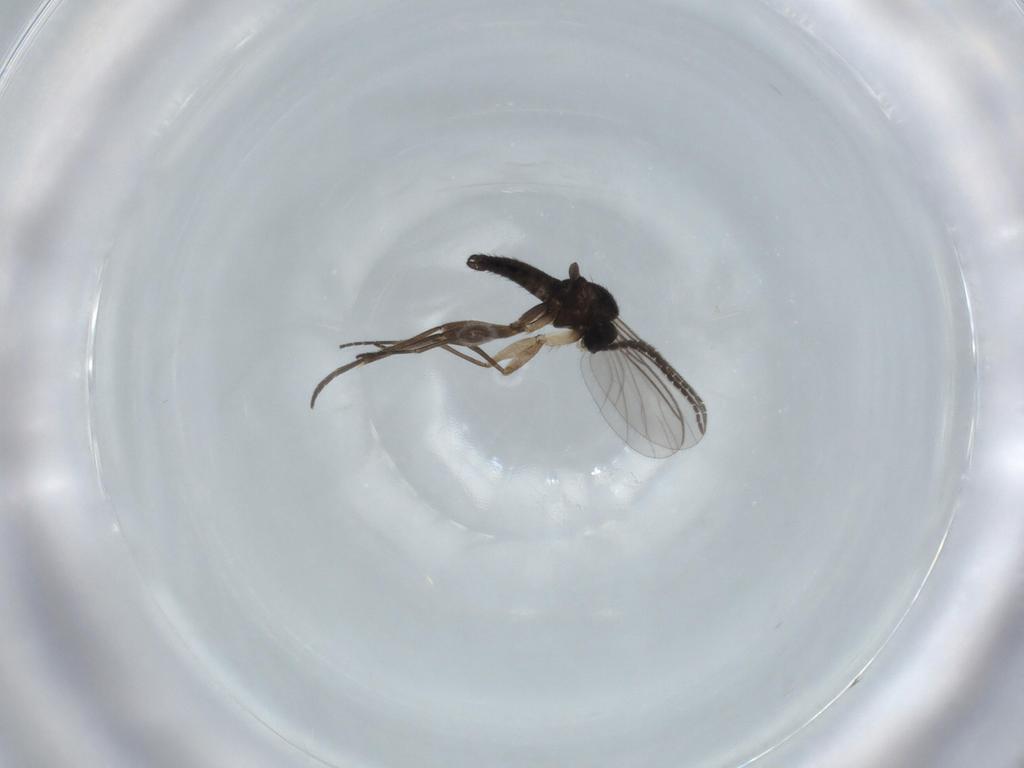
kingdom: Animalia
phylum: Arthropoda
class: Insecta
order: Diptera
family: Sciaridae
